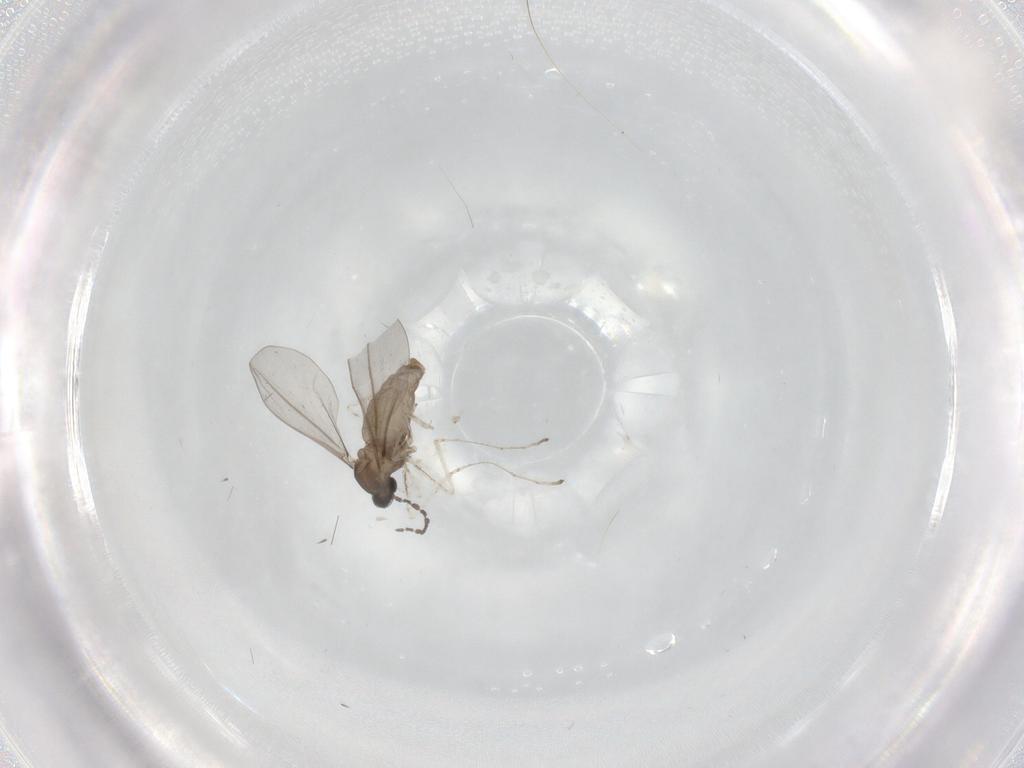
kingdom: Animalia
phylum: Arthropoda
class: Insecta
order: Diptera
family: Cecidomyiidae
